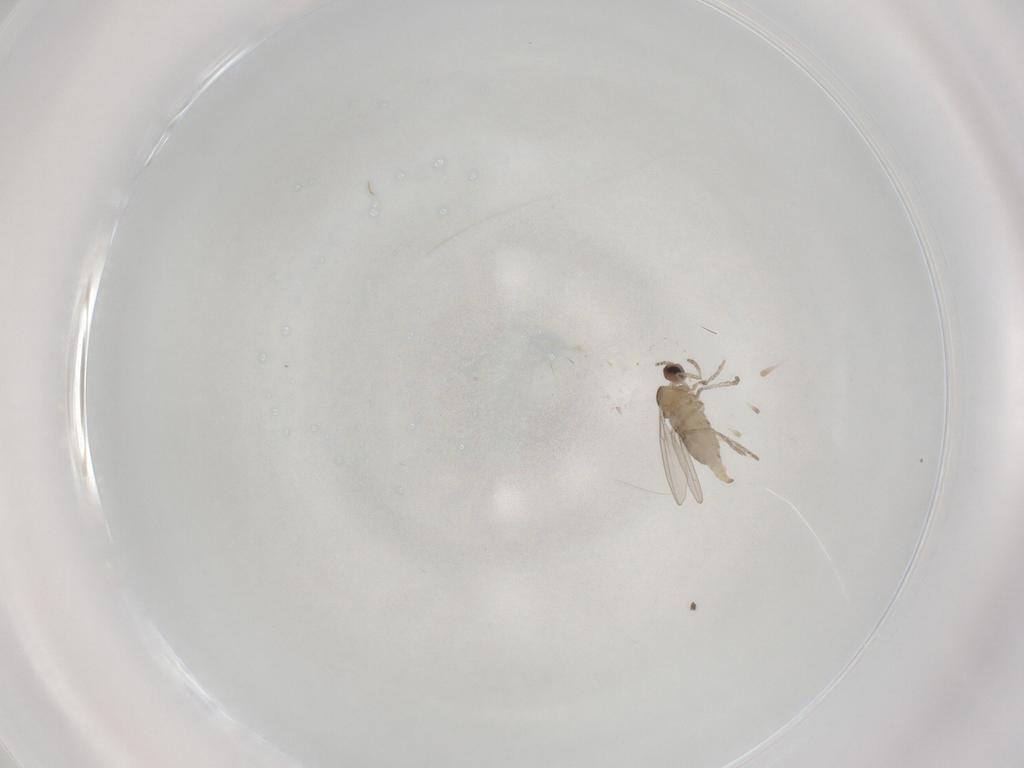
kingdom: Animalia
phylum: Arthropoda
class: Insecta
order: Diptera
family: Cecidomyiidae
